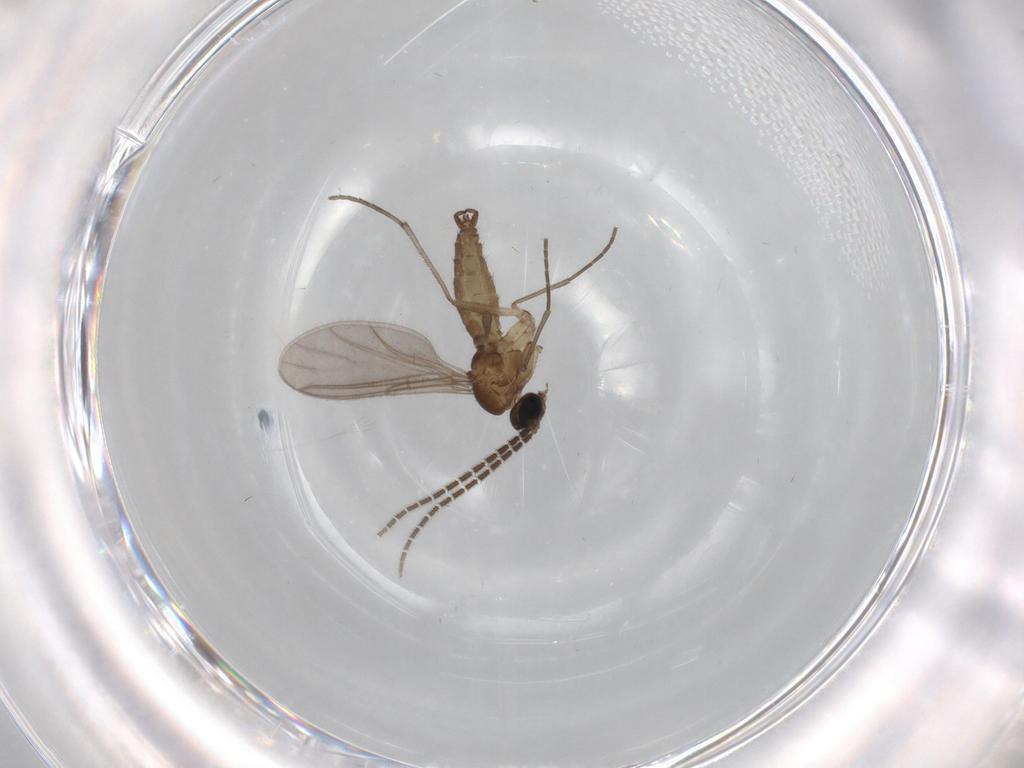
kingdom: Animalia
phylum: Arthropoda
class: Insecta
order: Diptera
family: Sciaridae
